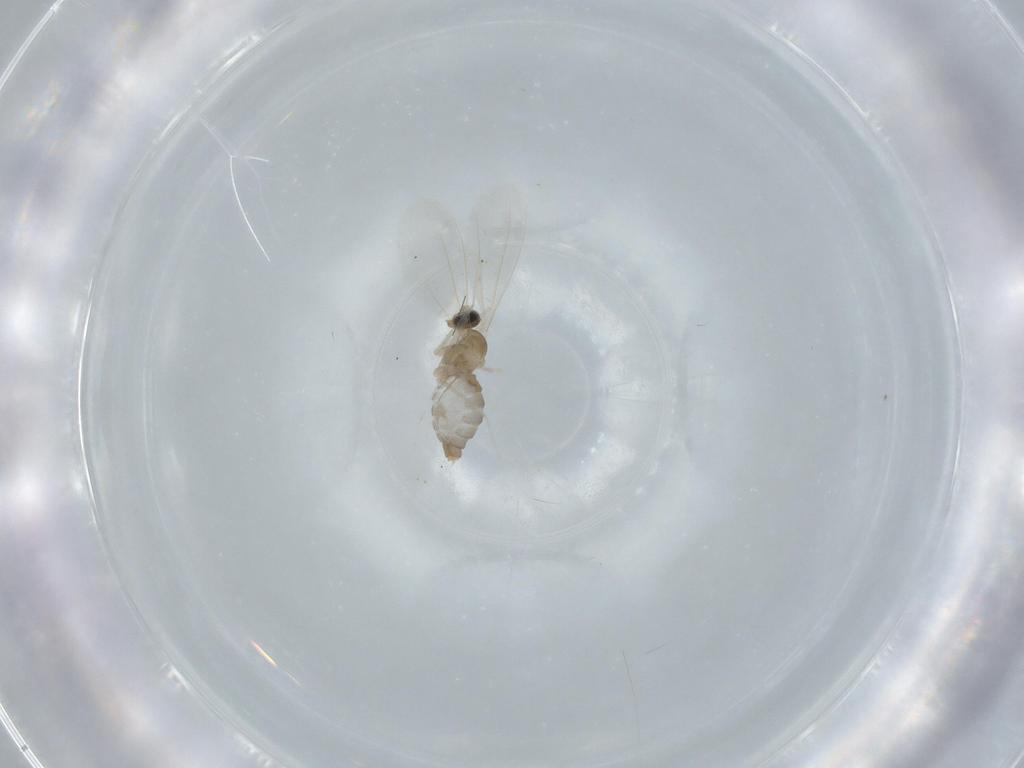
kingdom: Animalia
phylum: Arthropoda
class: Insecta
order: Diptera
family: Cecidomyiidae
